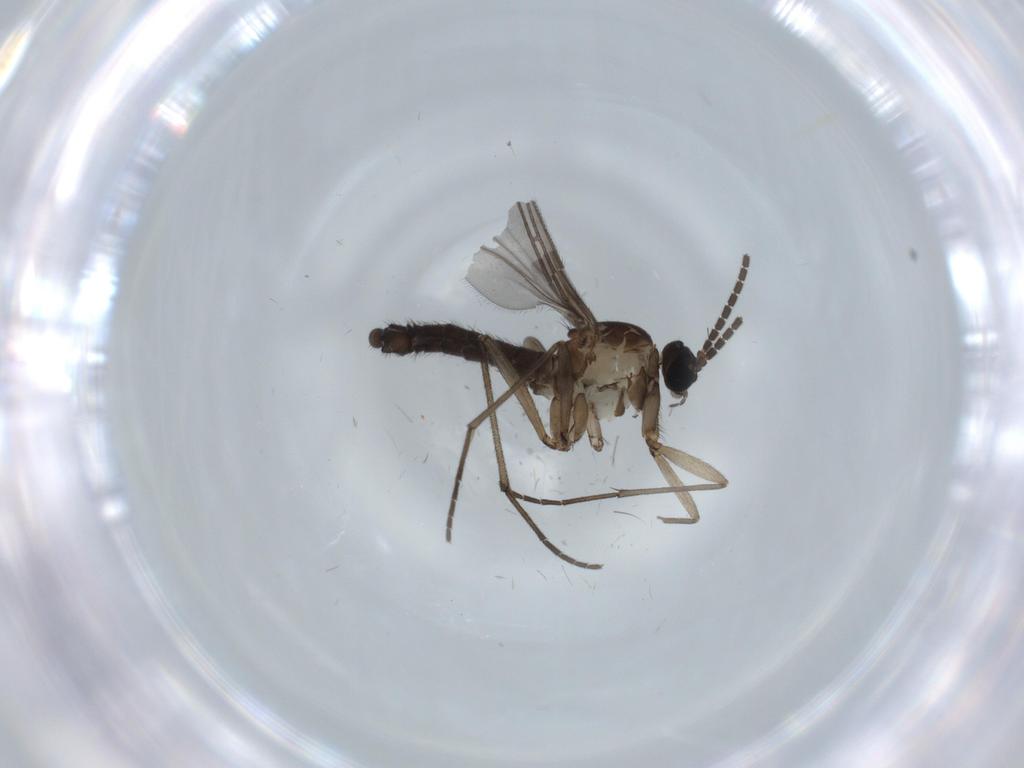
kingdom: Animalia
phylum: Arthropoda
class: Insecta
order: Diptera
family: Sciaridae
